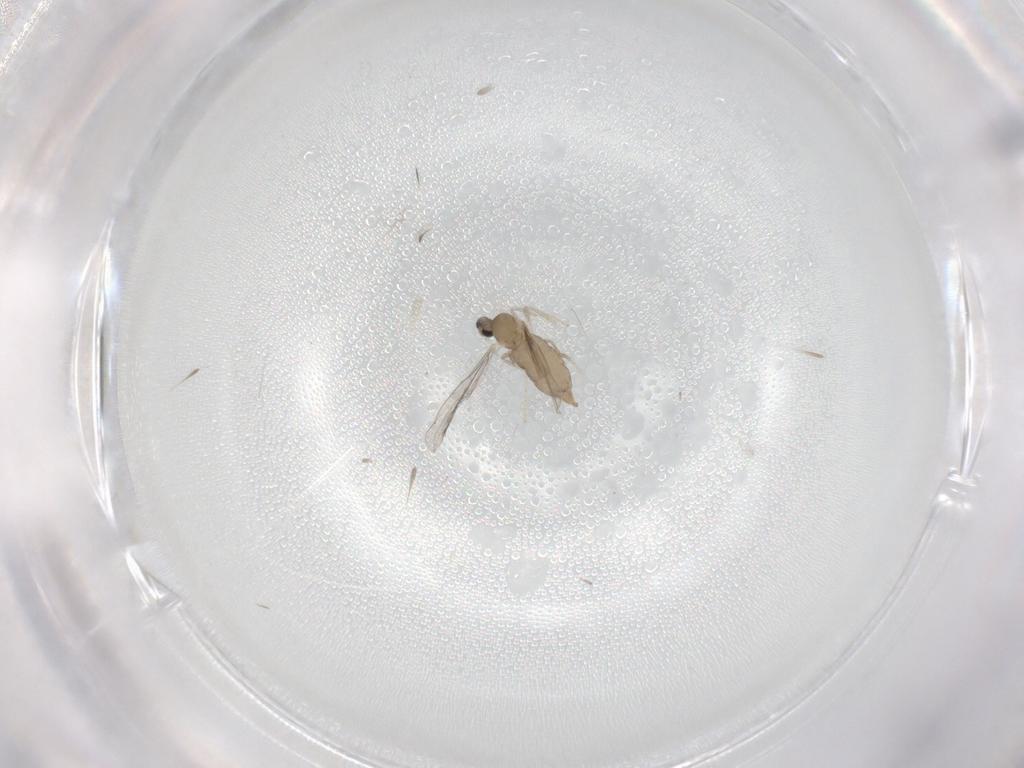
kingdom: Animalia
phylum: Arthropoda
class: Insecta
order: Diptera
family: Cecidomyiidae
